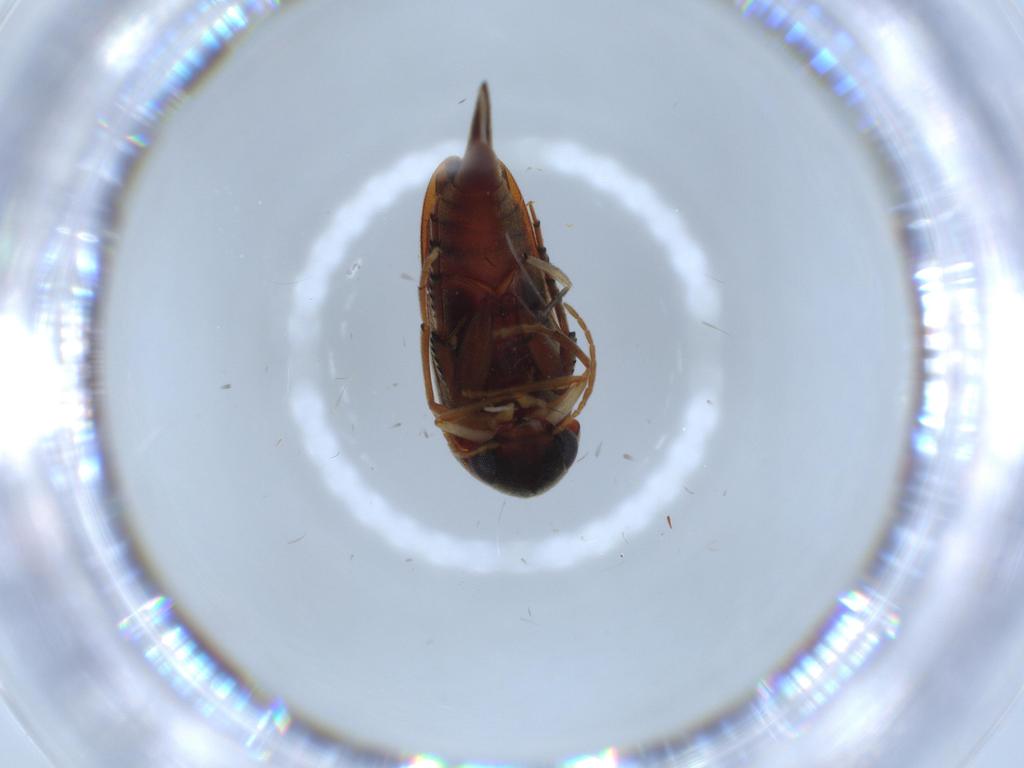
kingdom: Animalia
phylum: Arthropoda
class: Insecta
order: Coleoptera
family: Mordellidae
